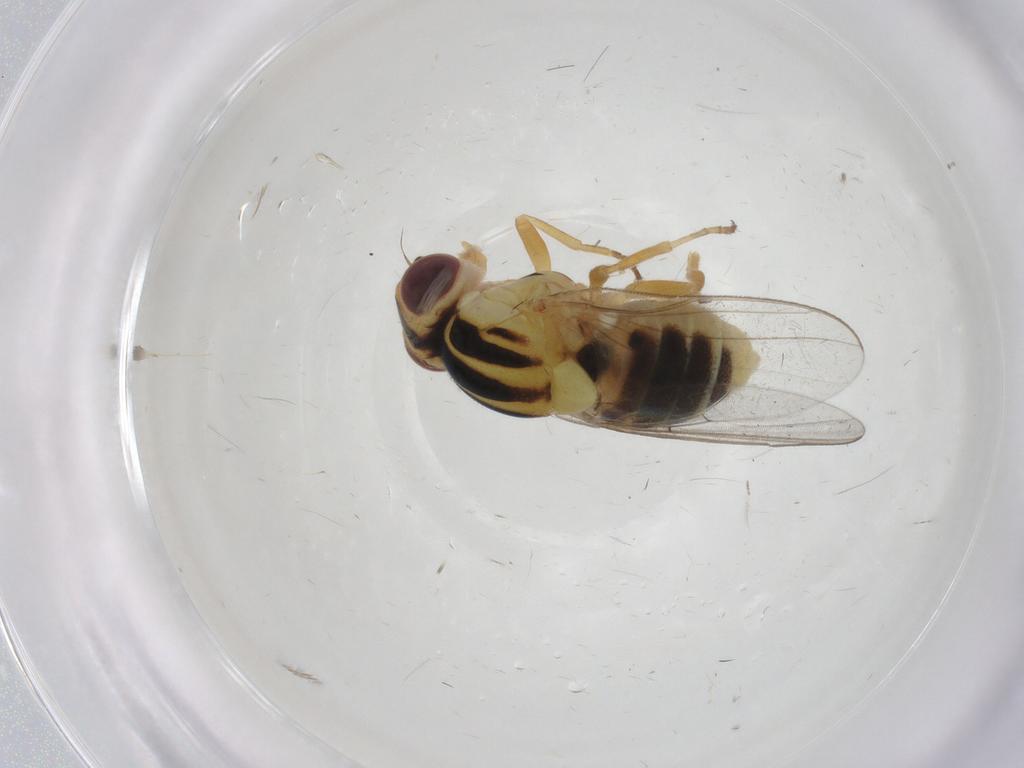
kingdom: Animalia
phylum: Arthropoda
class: Insecta
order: Diptera
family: Chloropidae
